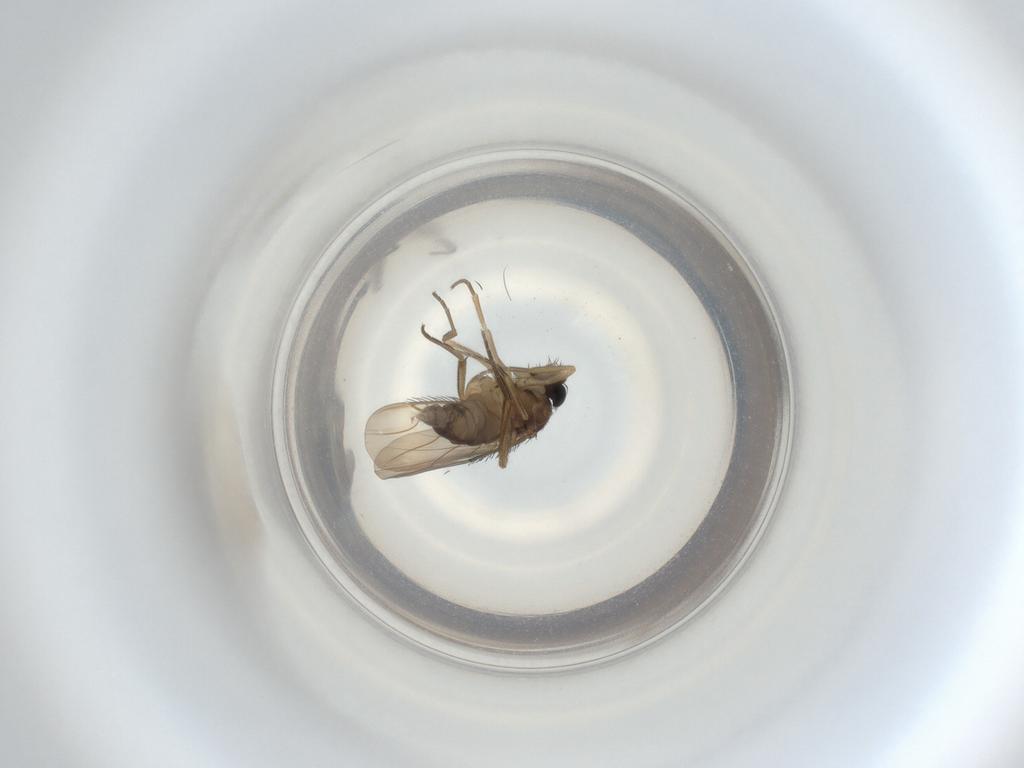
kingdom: Animalia
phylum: Arthropoda
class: Insecta
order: Diptera
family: Phoridae
